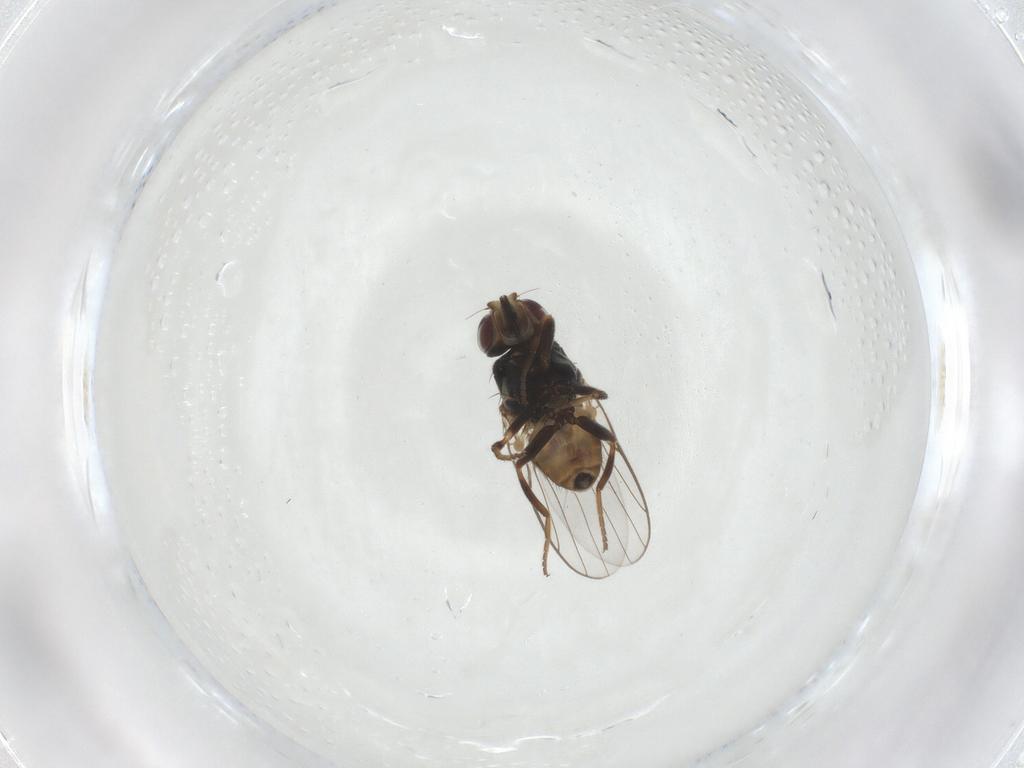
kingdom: Animalia
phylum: Arthropoda
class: Insecta
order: Diptera
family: Chloropidae
